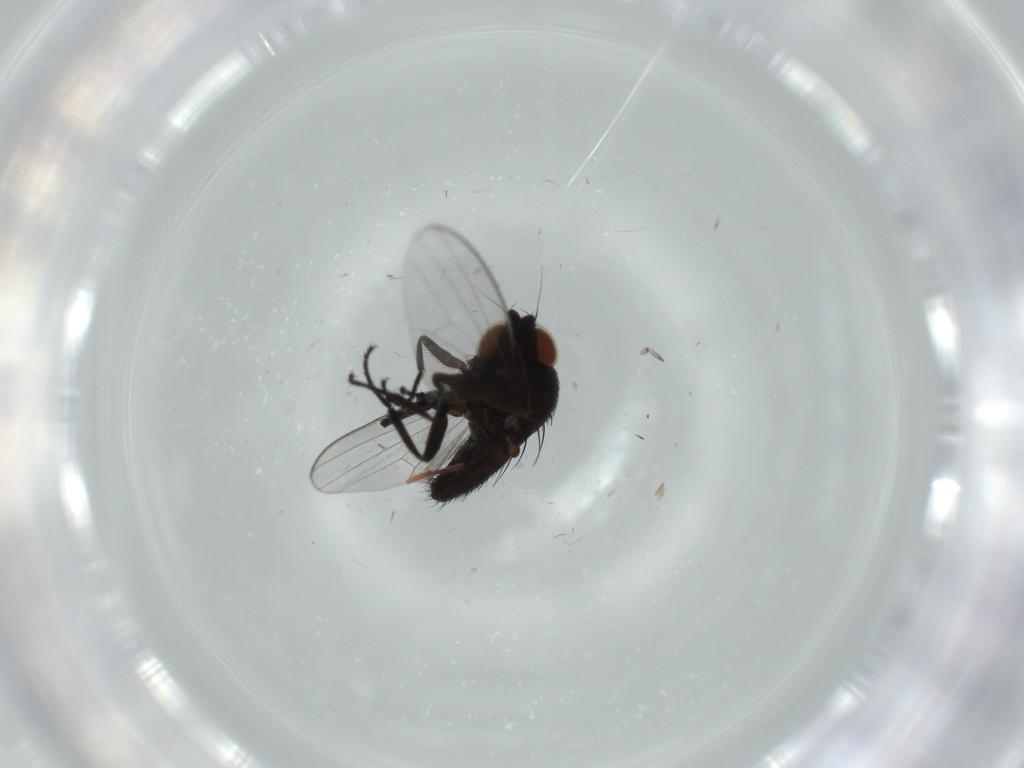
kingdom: Animalia
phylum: Arthropoda
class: Insecta
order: Diptera
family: Milichiidae
